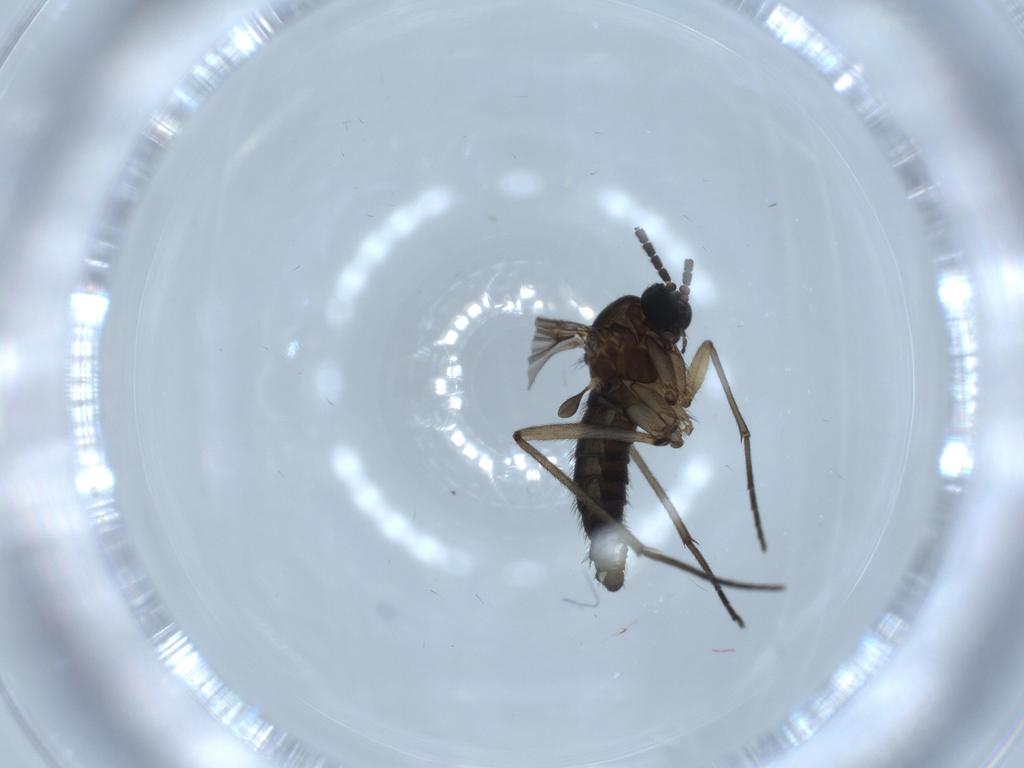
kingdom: Animalia
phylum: Arthropoda
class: Insecta
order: Diptera
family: Sciaridae
